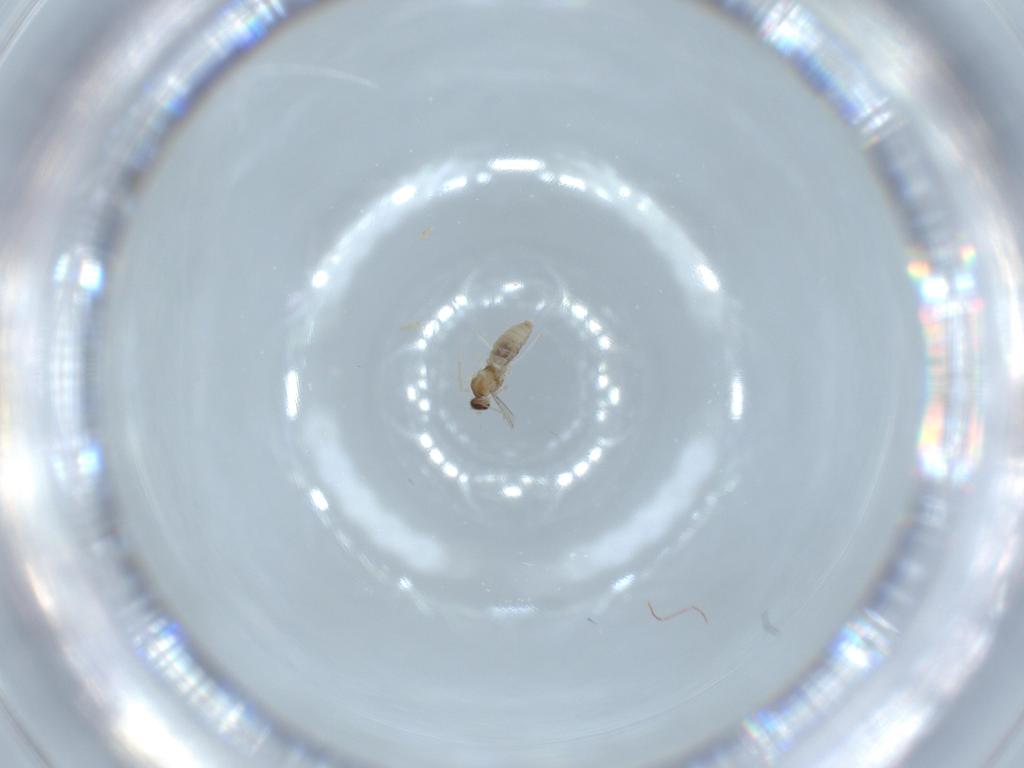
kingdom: Animalia
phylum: Arthropoda
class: Insecta
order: Diptera
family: Cecidomyiidae
